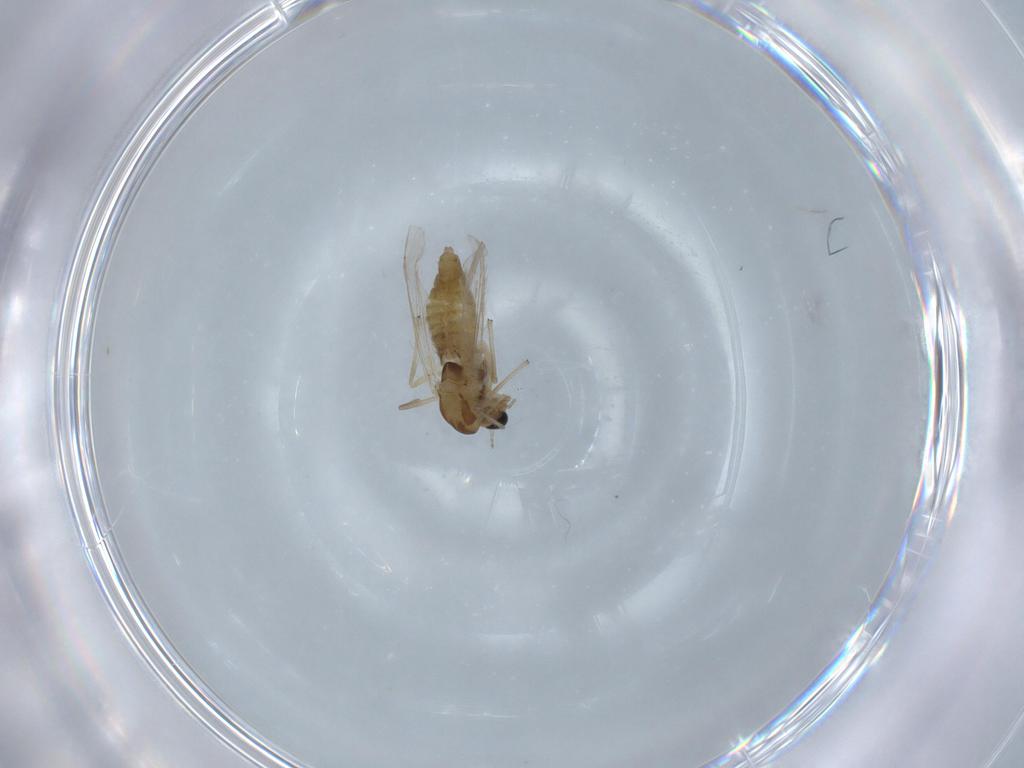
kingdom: Animalia
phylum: Arthropoda
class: Insecta
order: Diptera
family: Chironomidae
